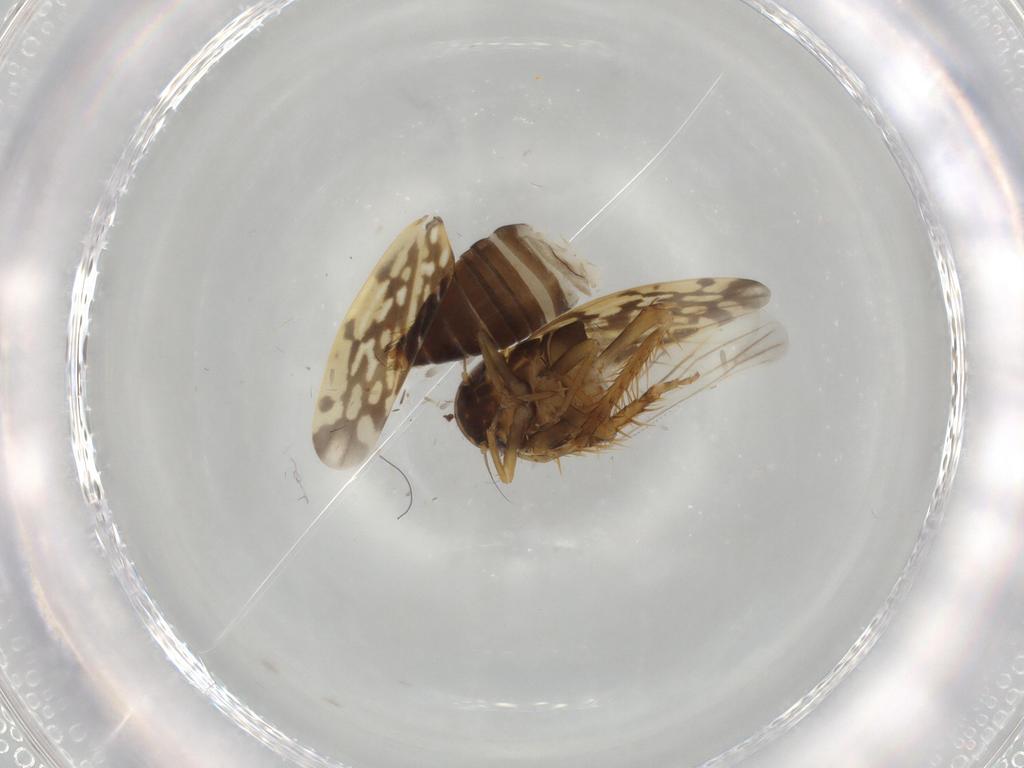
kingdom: Animalia
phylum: Arthropoda
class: Insecta
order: Hemiptera
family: Cicadellidae
